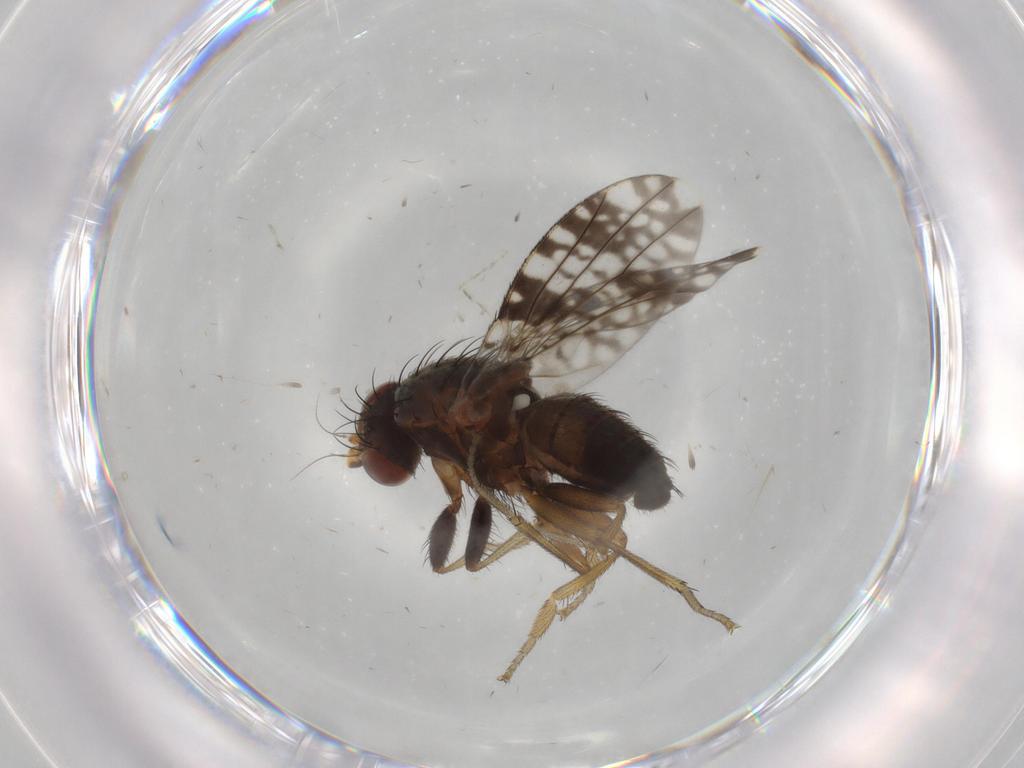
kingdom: Animalia
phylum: Arthropoda
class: Insecta
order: Diptera
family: Tephritidae
